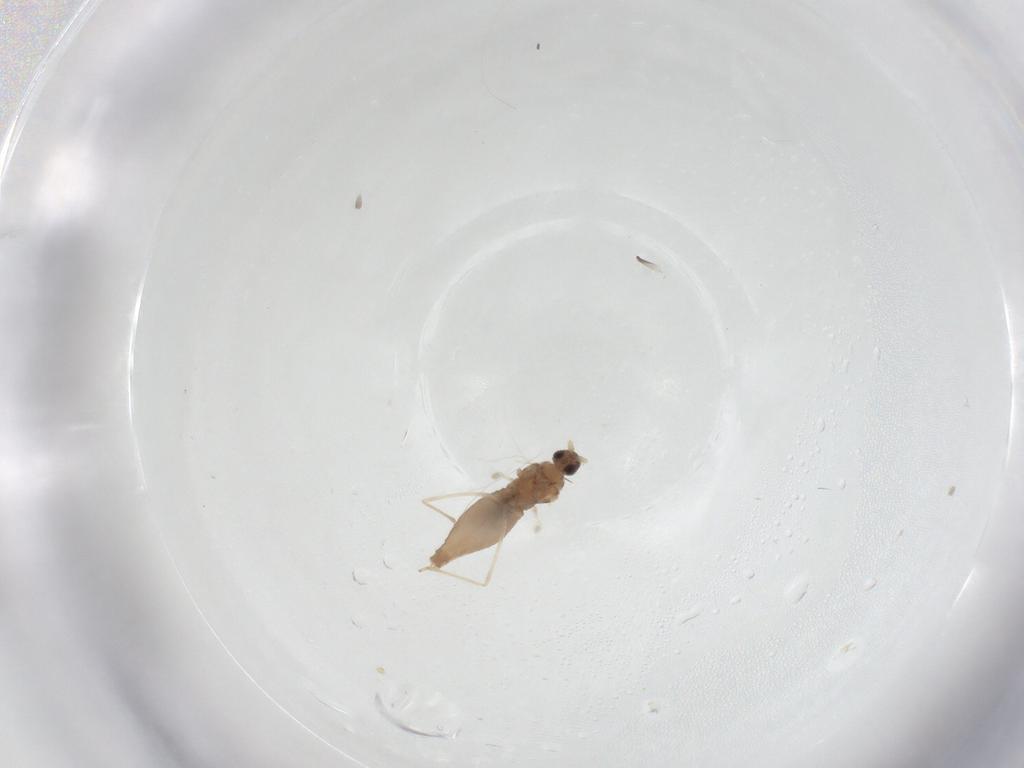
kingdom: Animalia
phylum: Arthropoda
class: Insecta
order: Diptera
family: Cecidomyiidae
